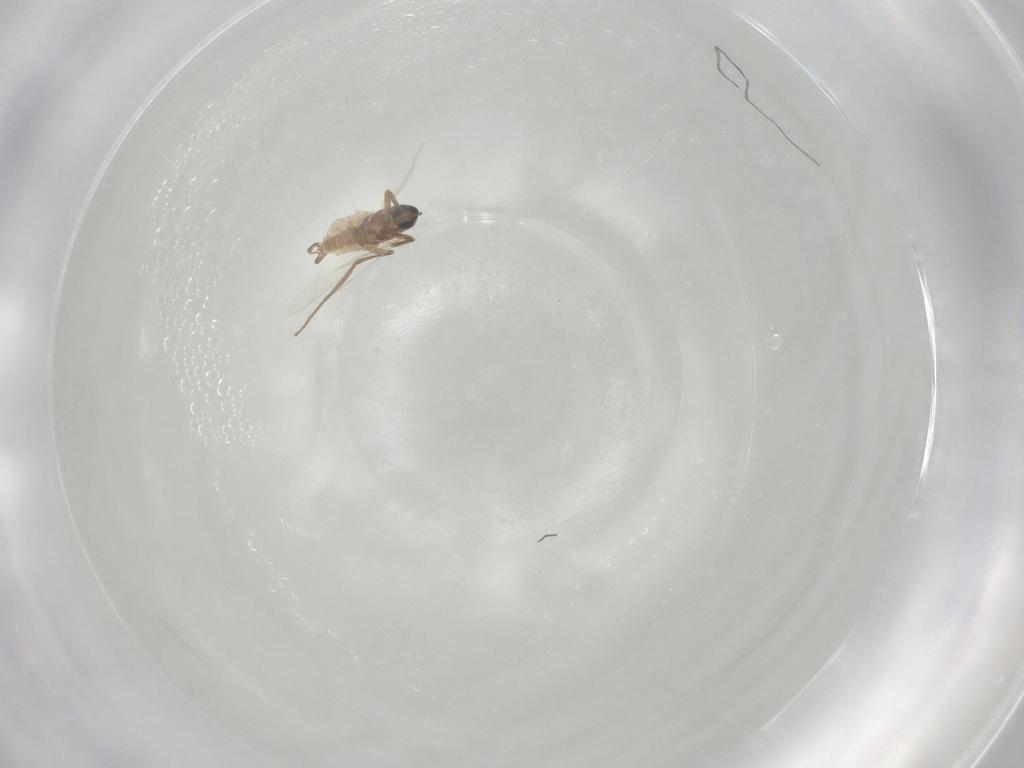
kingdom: Animalia
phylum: Arthropoda
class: Insecta
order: Diptera
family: Cecidomyiidae
